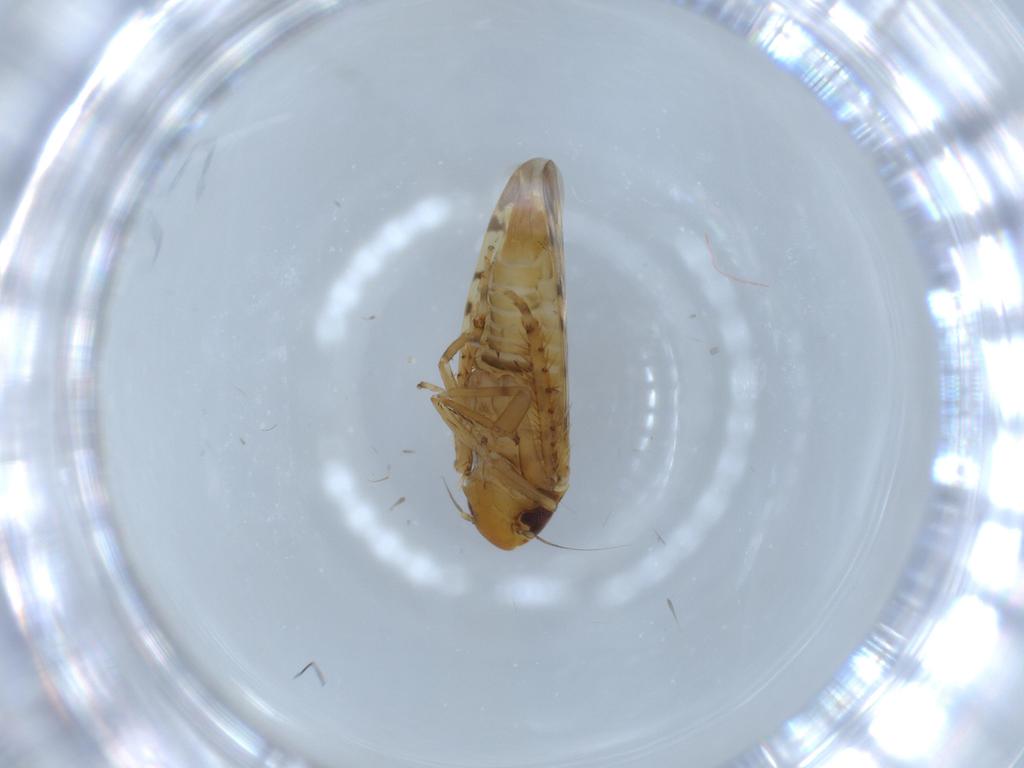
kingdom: Animalia
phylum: Arthropoda
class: Insecta
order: Hemiptera
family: Cicadellidae
